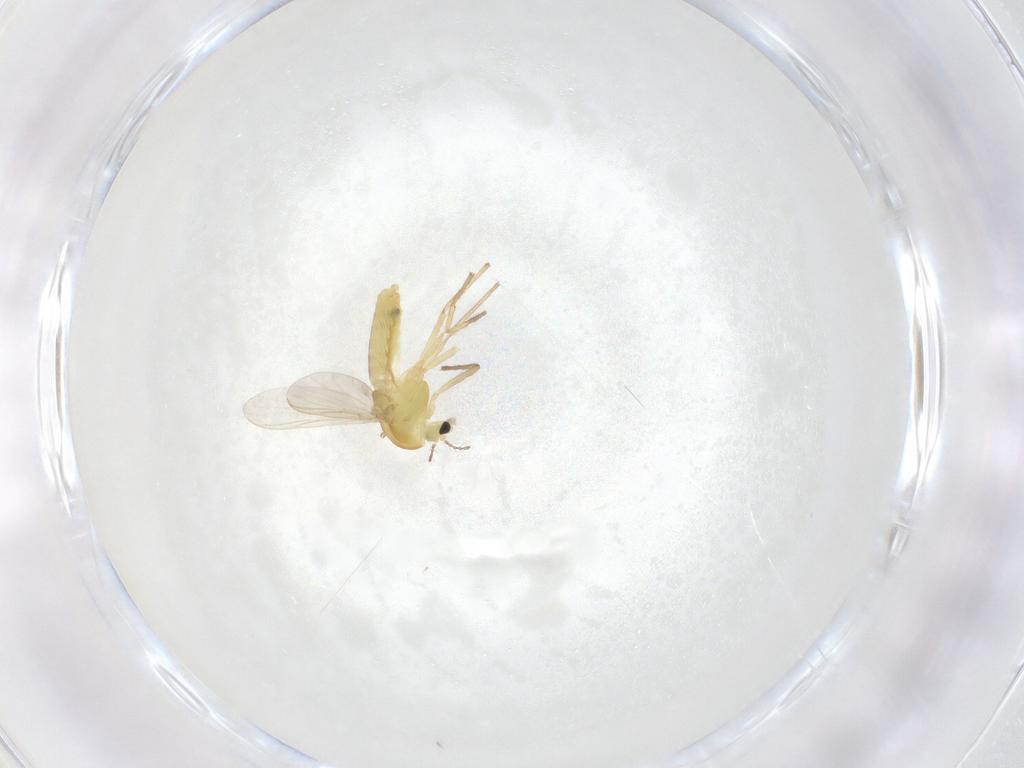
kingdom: Animalia
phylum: Arthropoda
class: Insecta
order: Diptera
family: Chironomidae
